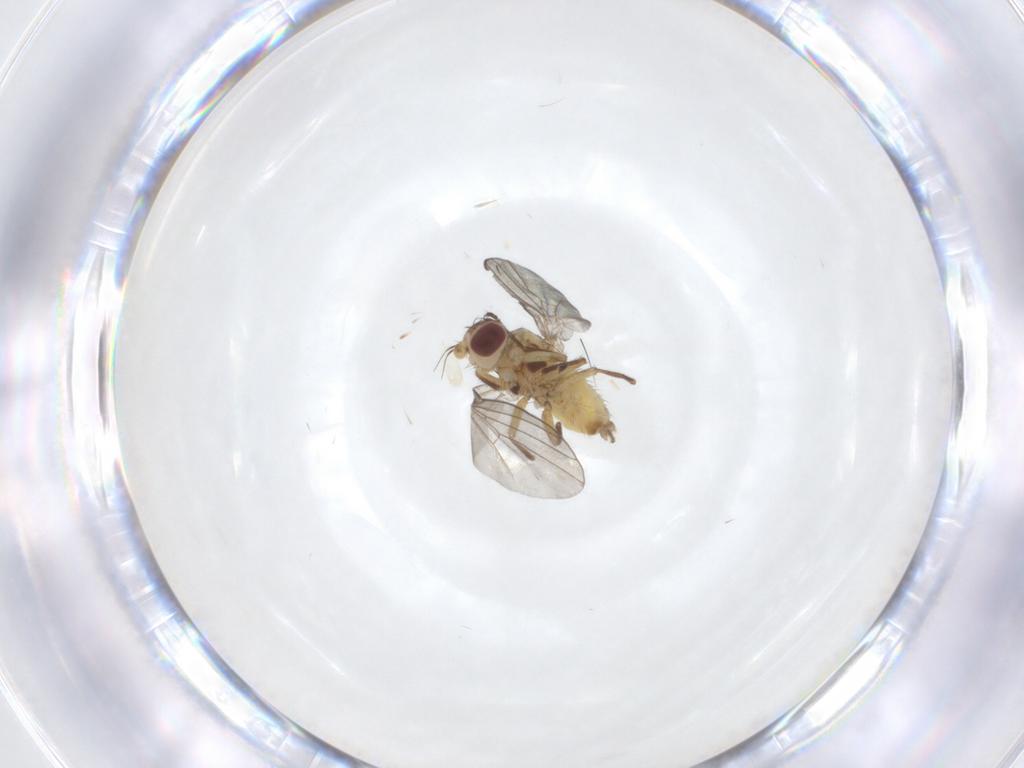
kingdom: Animalia
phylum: Arthropoda
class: Insecta
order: Diptera
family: Agromyzidae
